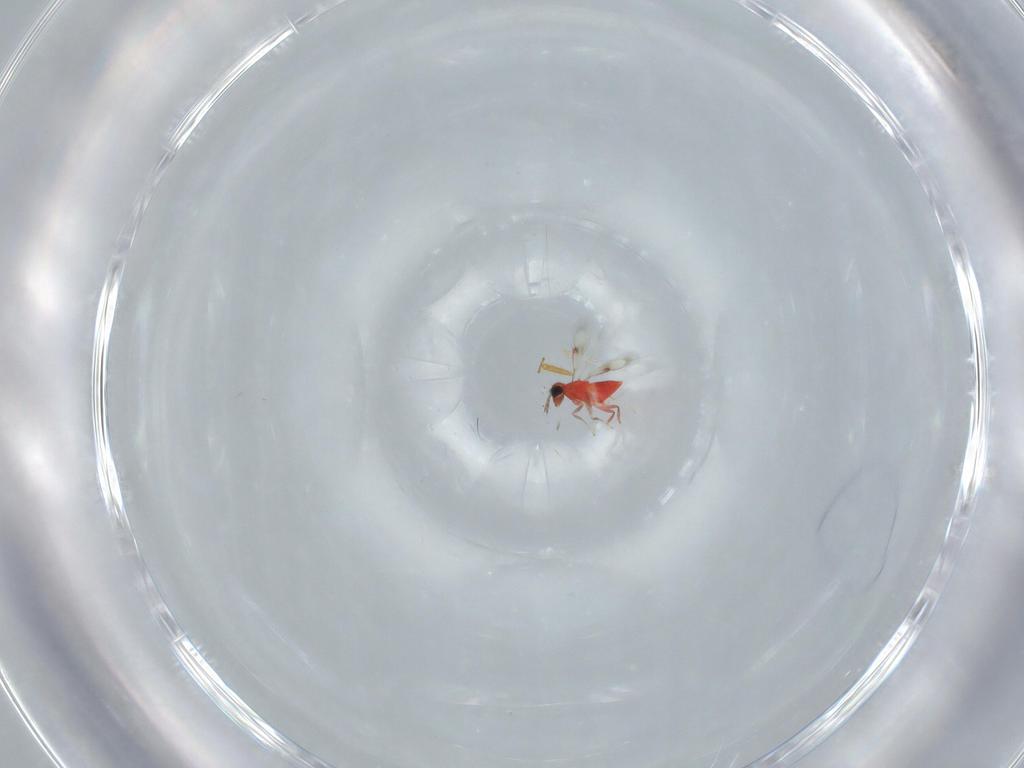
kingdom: Animalia
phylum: Arthropoda
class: Insecta
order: Hymenoptera
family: Trichogrammatidae
